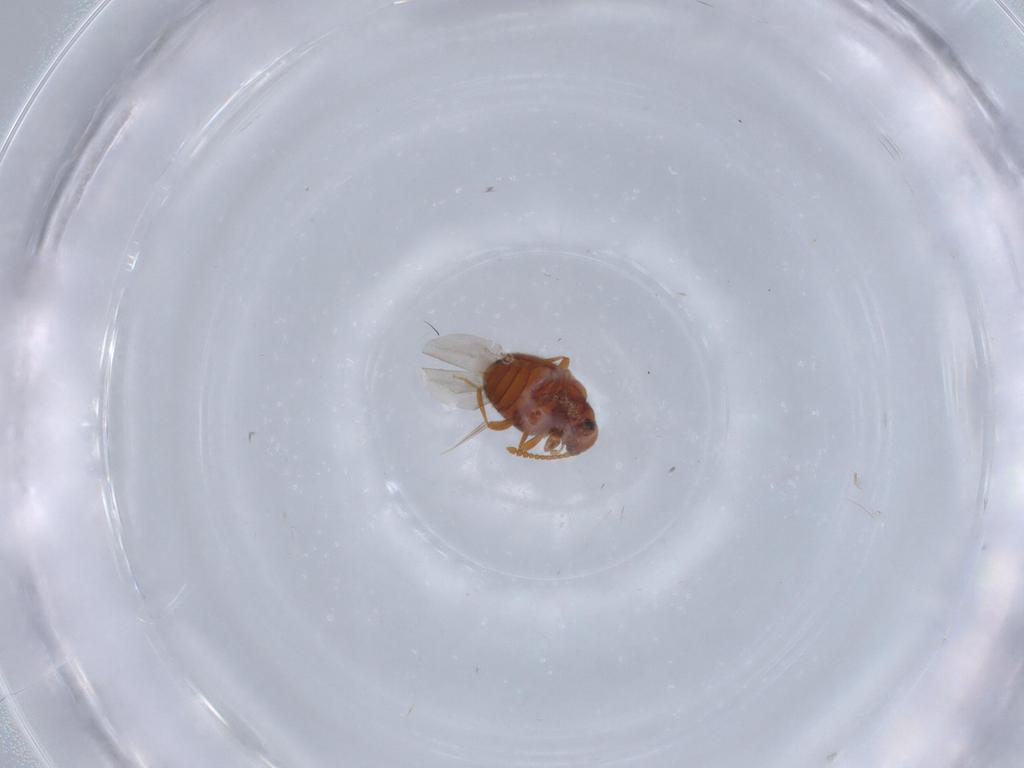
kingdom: Animalia
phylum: Arthropoda
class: Insecta
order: Coleoptera
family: Aderidae
